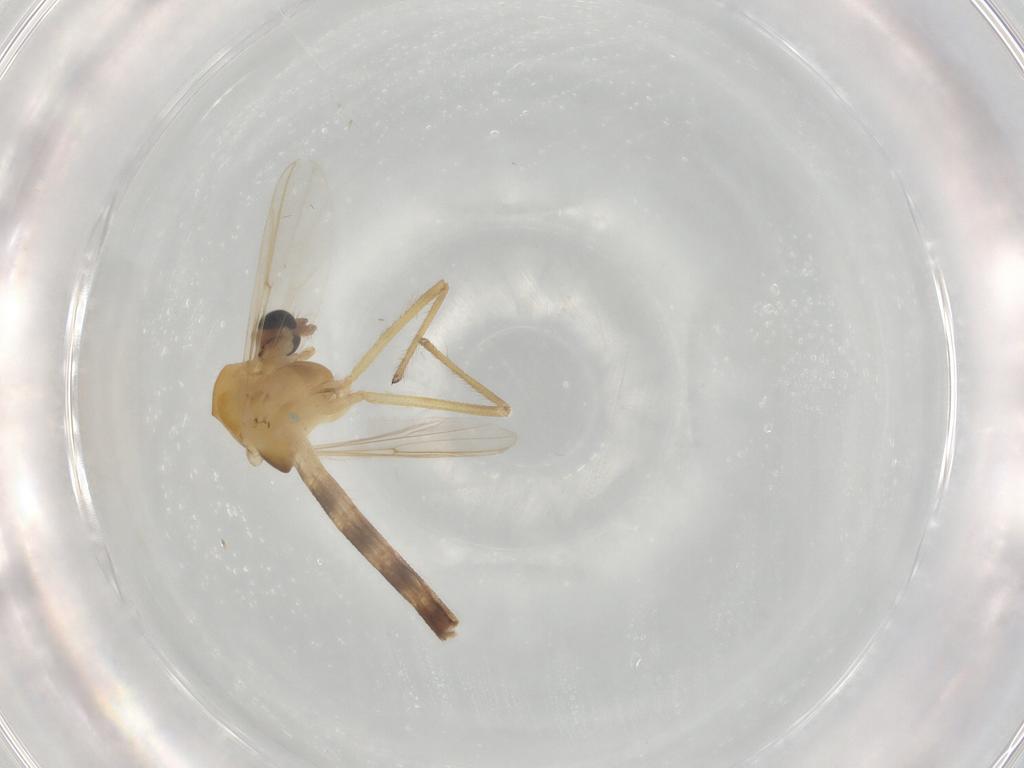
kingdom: Animalia
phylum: Arthropoda
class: Insecta
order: Diptera
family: Chironomidae
